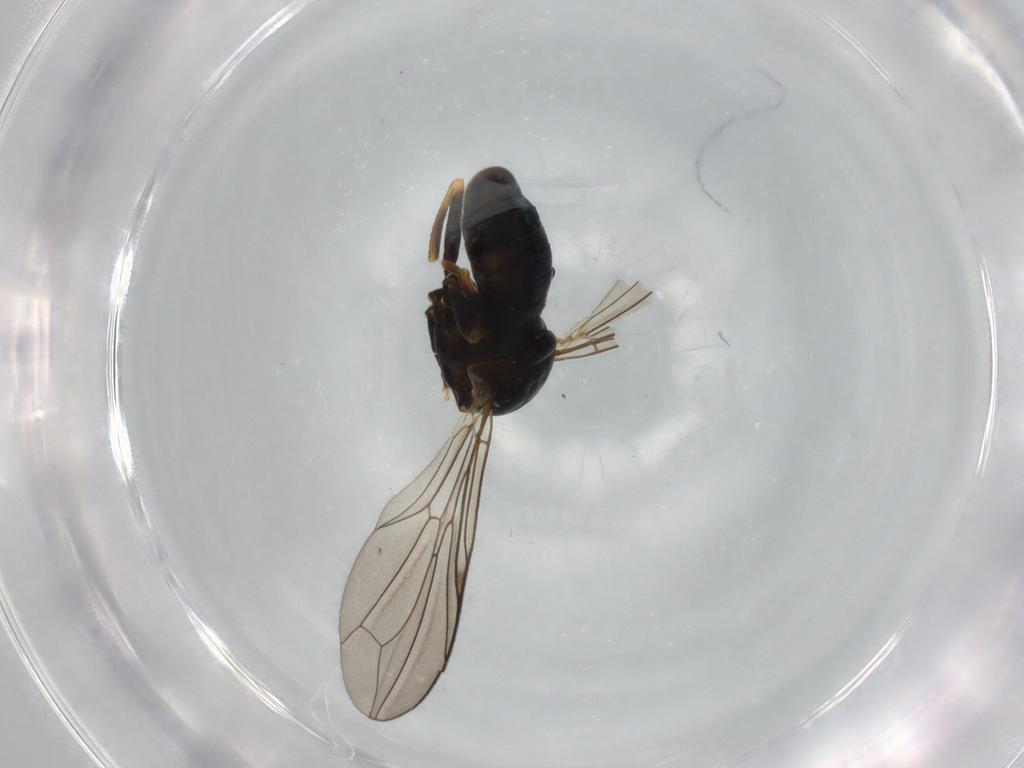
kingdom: Animalia
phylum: Arthropoda
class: Insecta
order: Diptera
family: Pipunculidae
